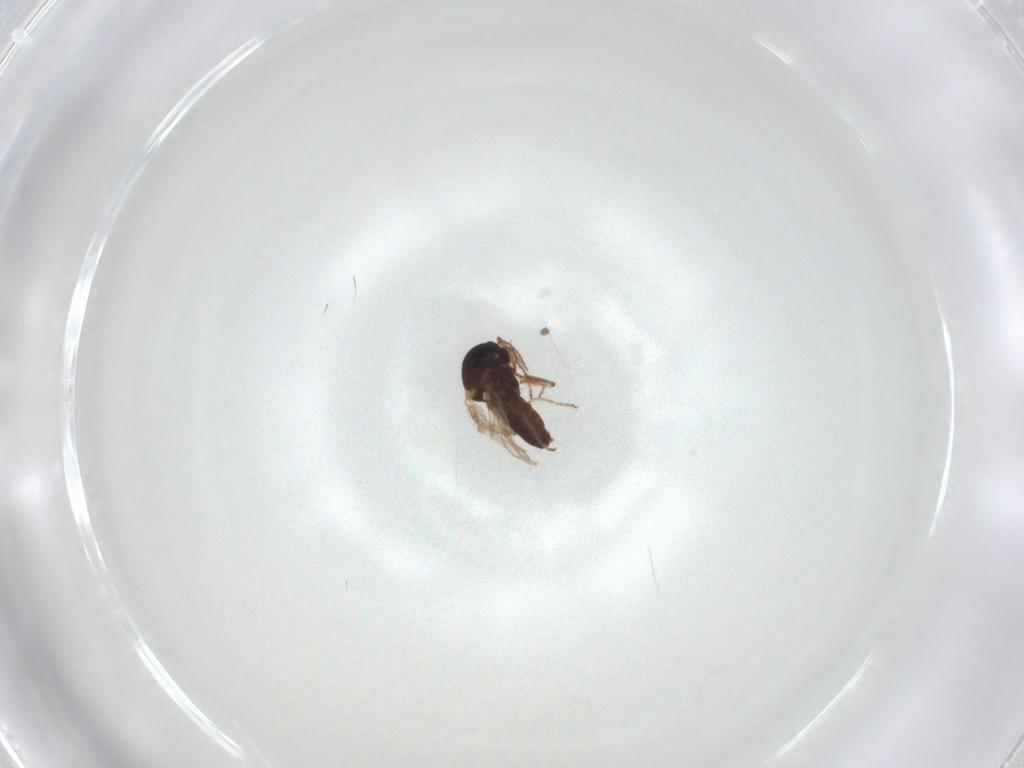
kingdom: Animalia
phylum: Arthropoda
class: Insecta
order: Diptera
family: Ceratopogonidae
